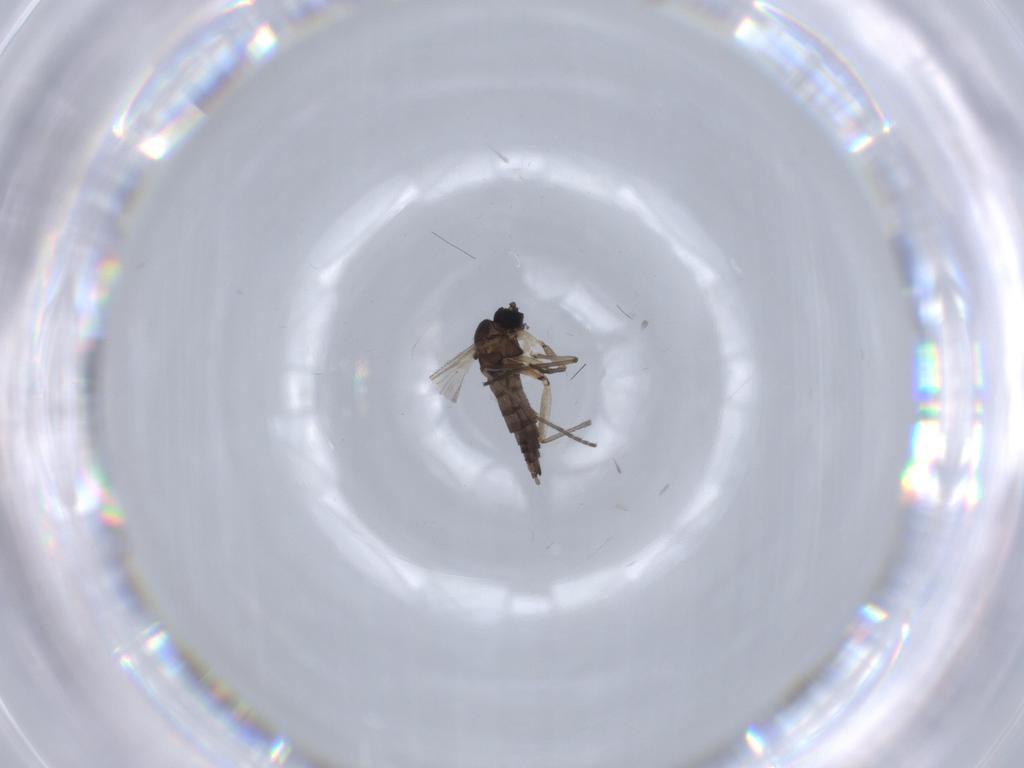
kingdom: Animalia
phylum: Arthropoda
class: Insecta
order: Diptera
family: Sciaridae
